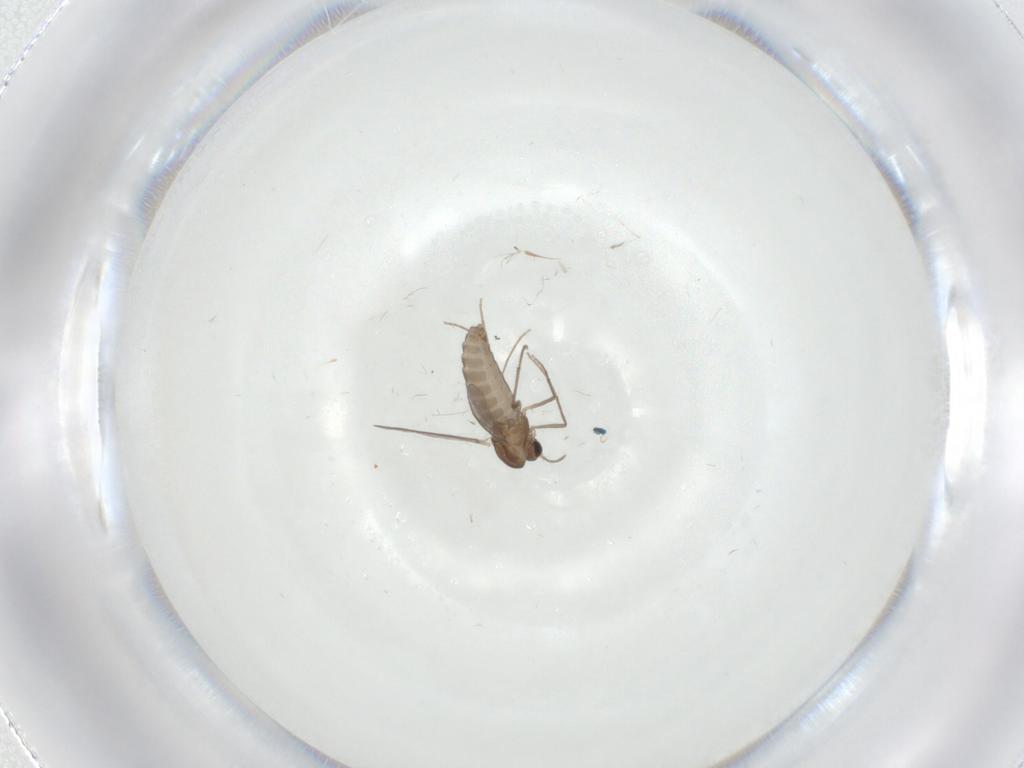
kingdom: Animalia
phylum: Arthropoda
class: Insecta
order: Diptera
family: Chironomidae
